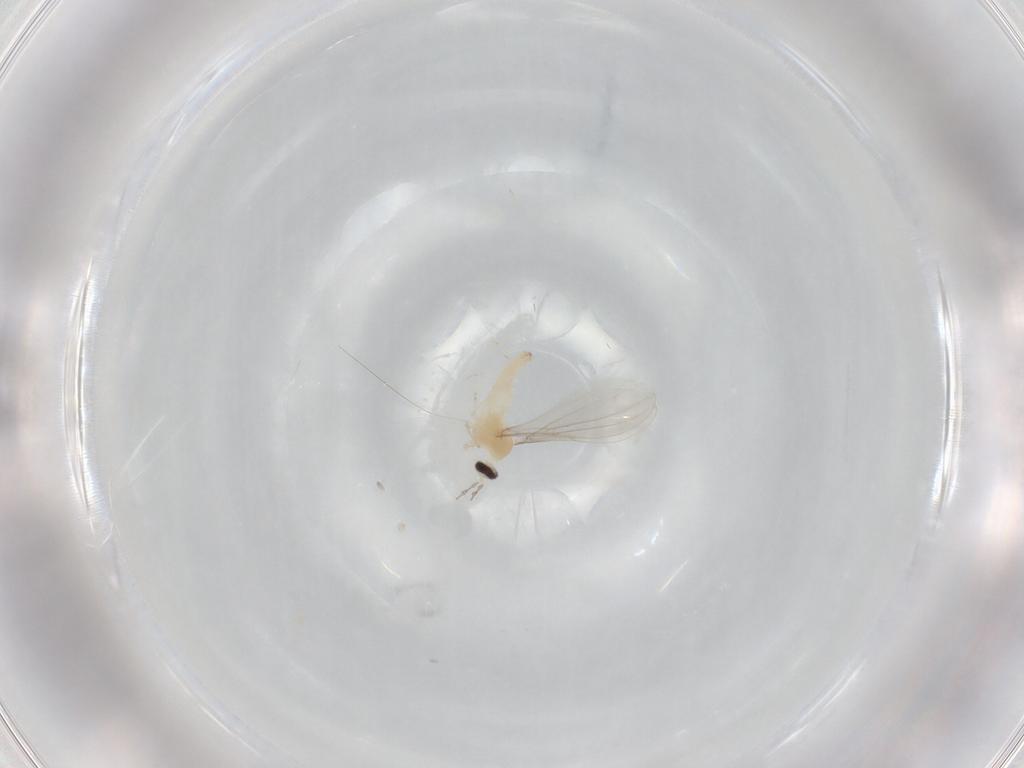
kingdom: Animalia
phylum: Arthropoda
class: Insecta
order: Diptera
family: Cecidomyiidae
